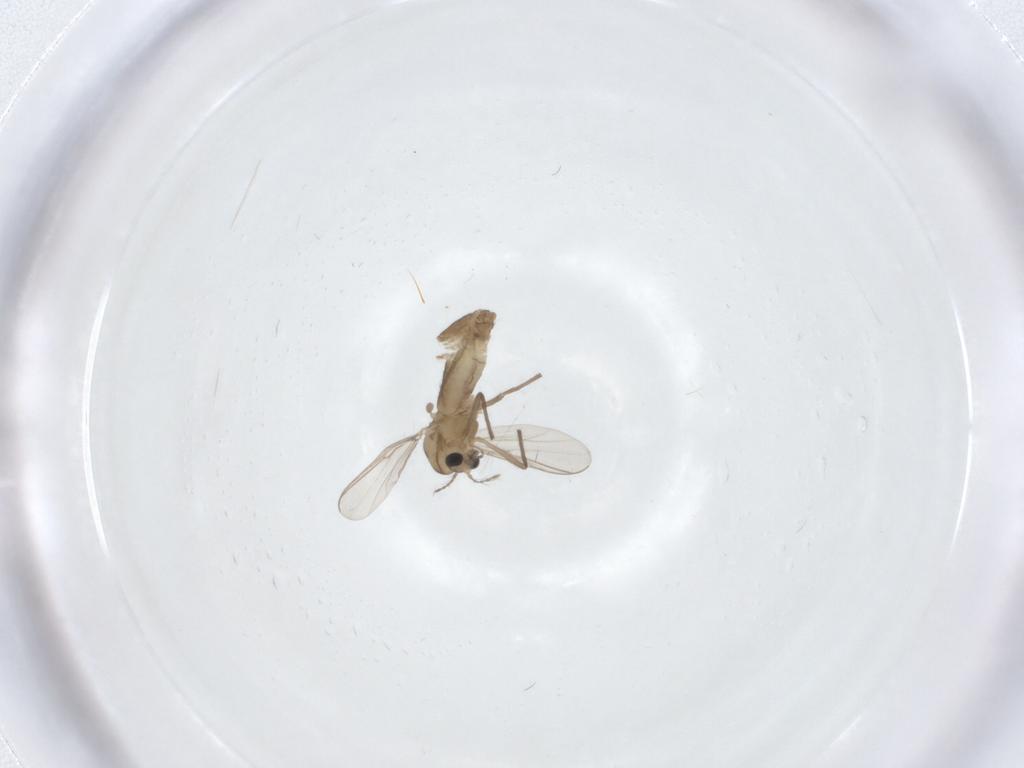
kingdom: Animalia
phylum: Arthropoda
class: Insecta
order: Diptera
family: Chironomidae
